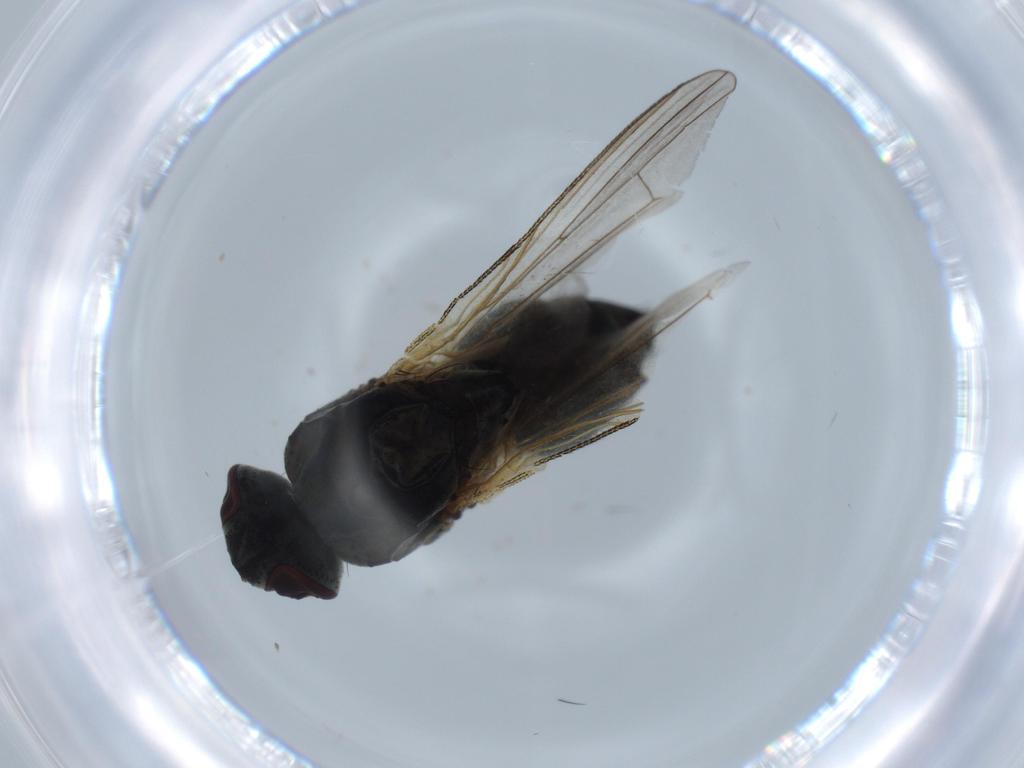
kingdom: Animalia
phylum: Arthropoda
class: Insecta
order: Diptera
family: Muscidae
